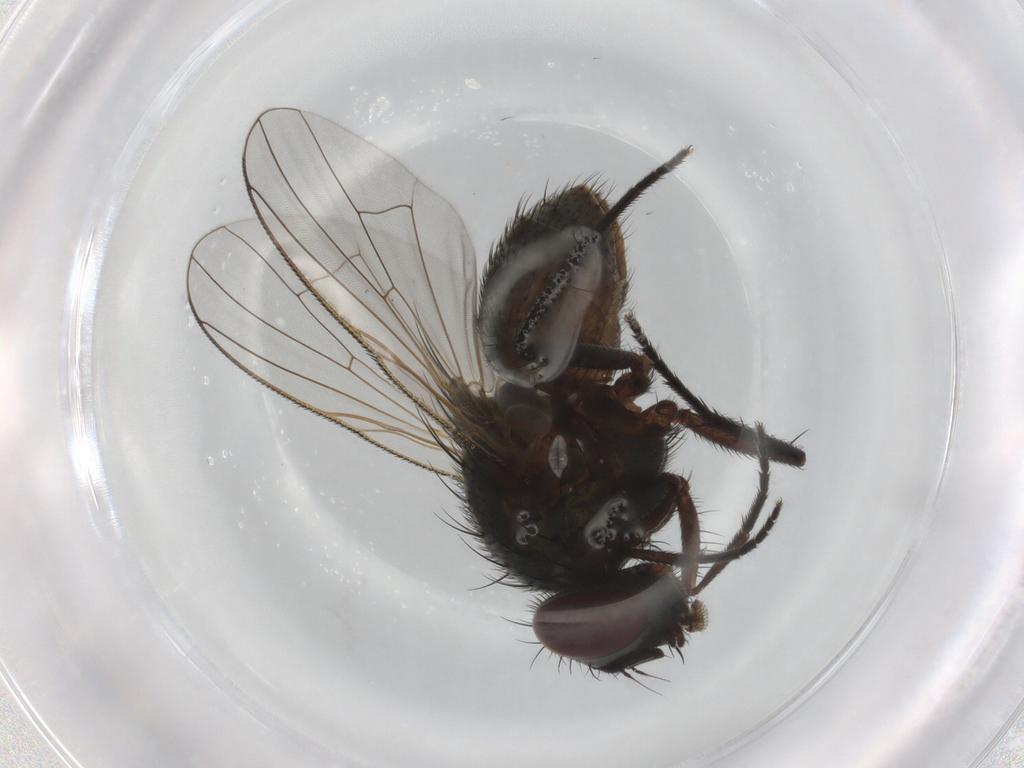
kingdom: Animalia
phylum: Arthropoda
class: Insecta
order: Diptera
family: Muscidae
